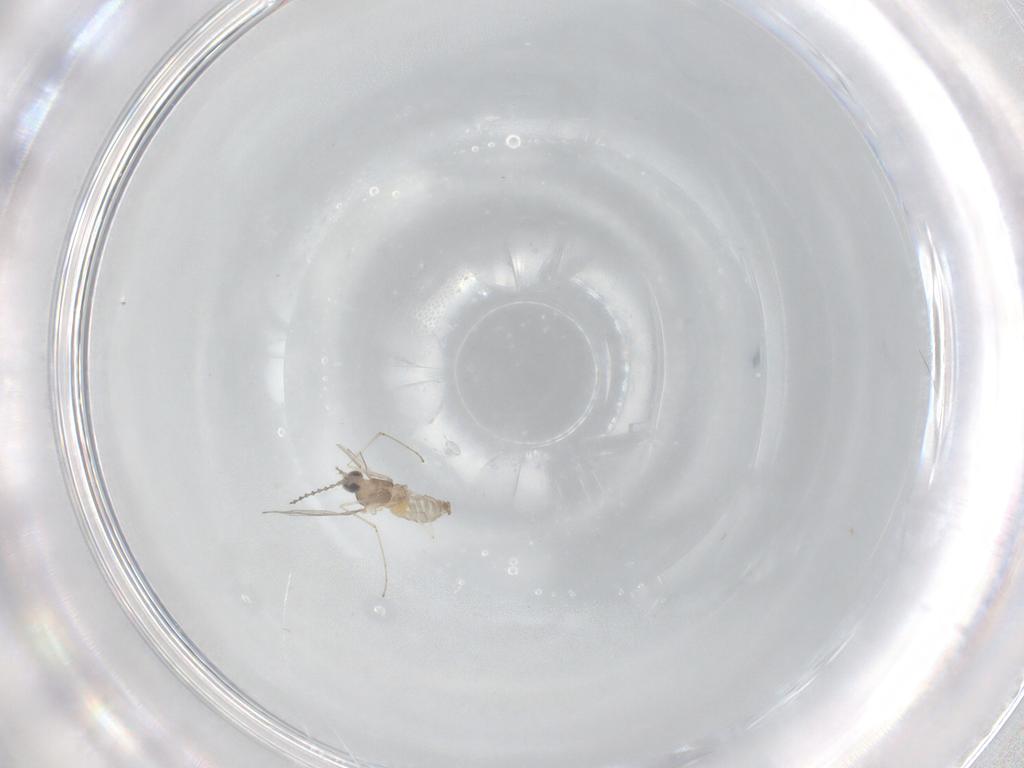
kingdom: Animalia
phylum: Arthropoda
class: Insecta
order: Diptera
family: Cecidomyiidae
